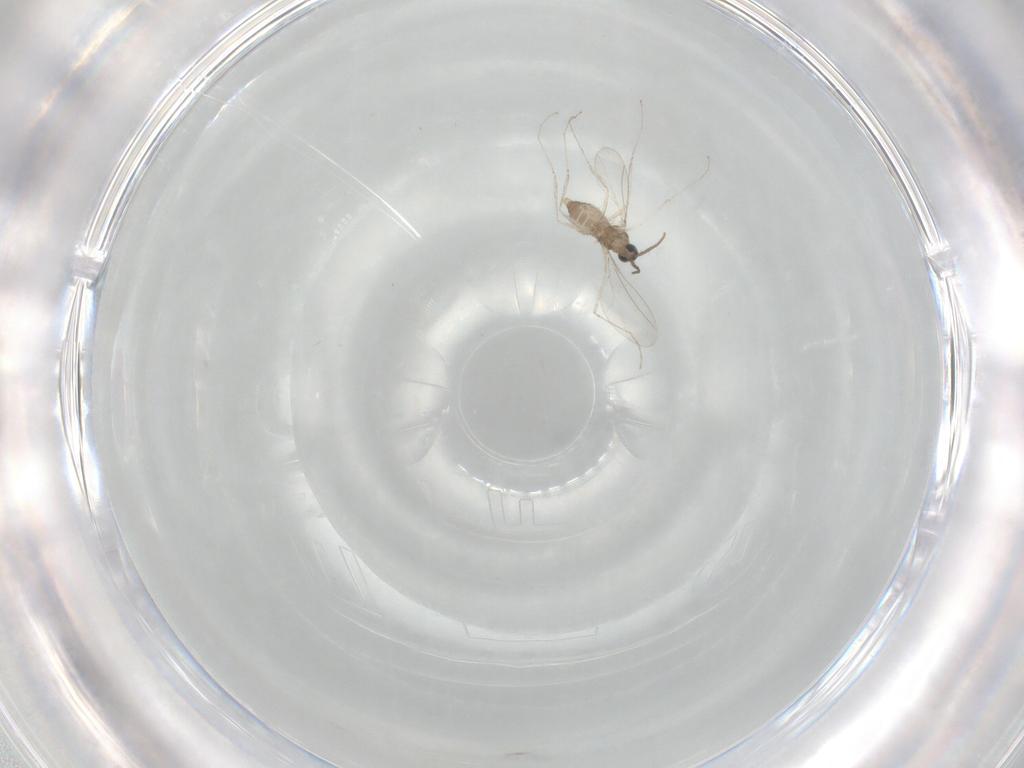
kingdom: Animalia
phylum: Arthropoda
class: Insecta
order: Diptera
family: Cecidomyiidae
